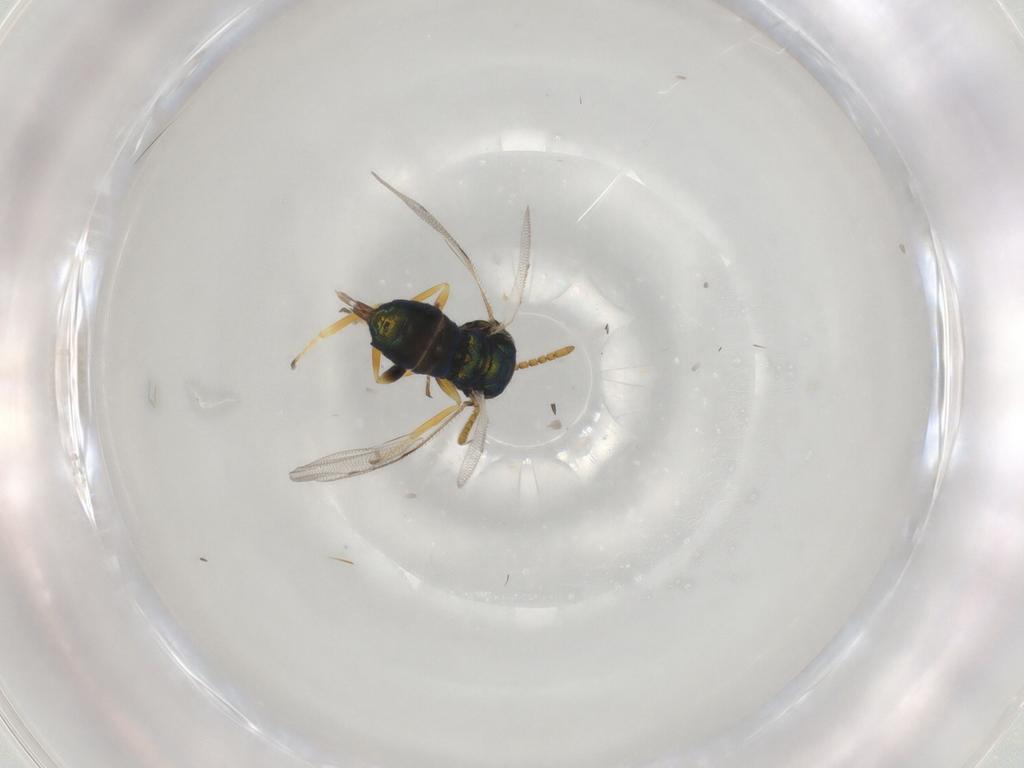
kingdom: Animalia
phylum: Arthropoda
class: Insecta
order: Hymenoptera
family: Pteromalidae
